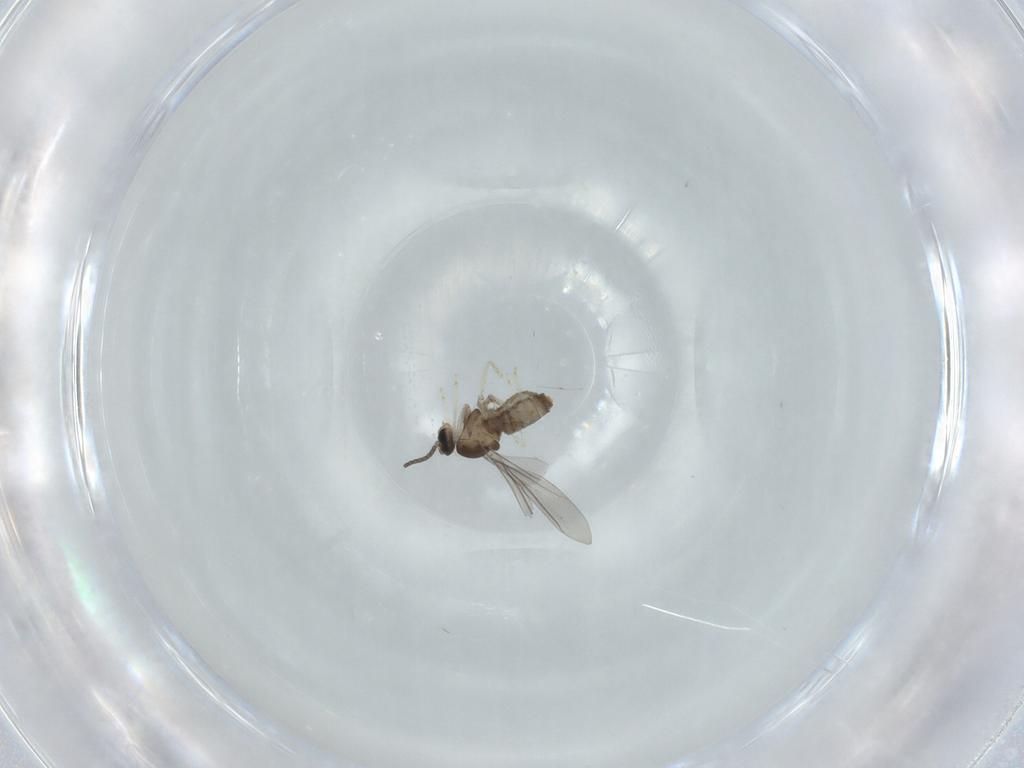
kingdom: Animalia
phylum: Arthropoda
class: Insecta
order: Diptera
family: Cecidomyiidae
